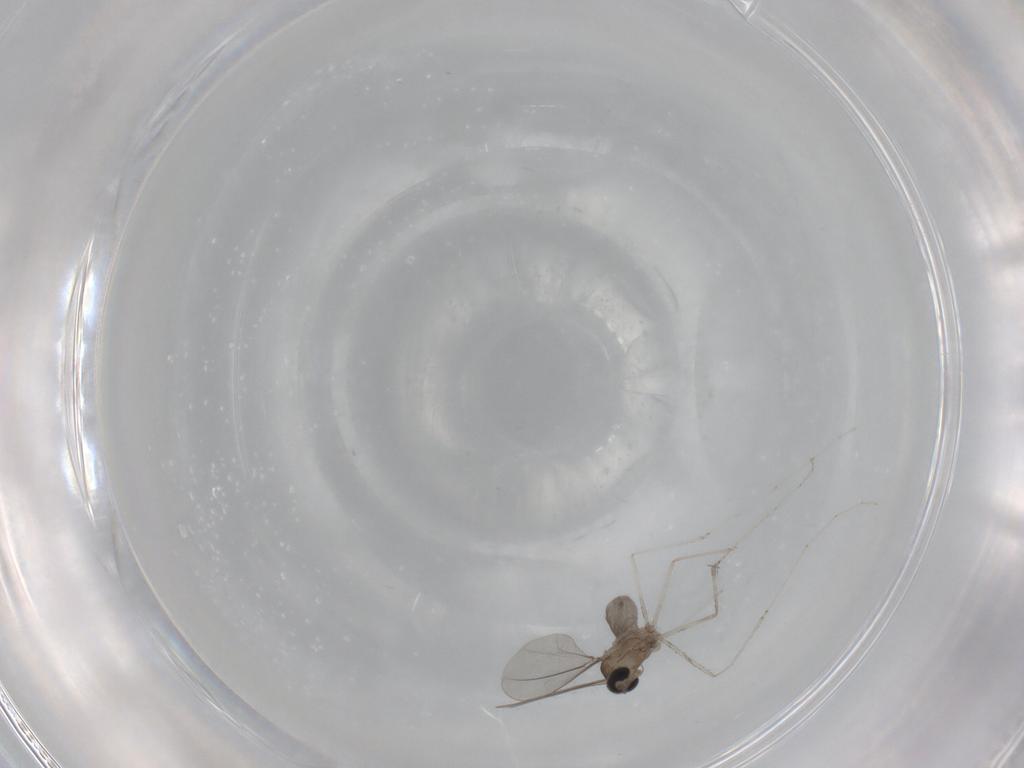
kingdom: Animalia
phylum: Arthropoda
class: Insecta
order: Diptera
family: Cecidomyiidae
